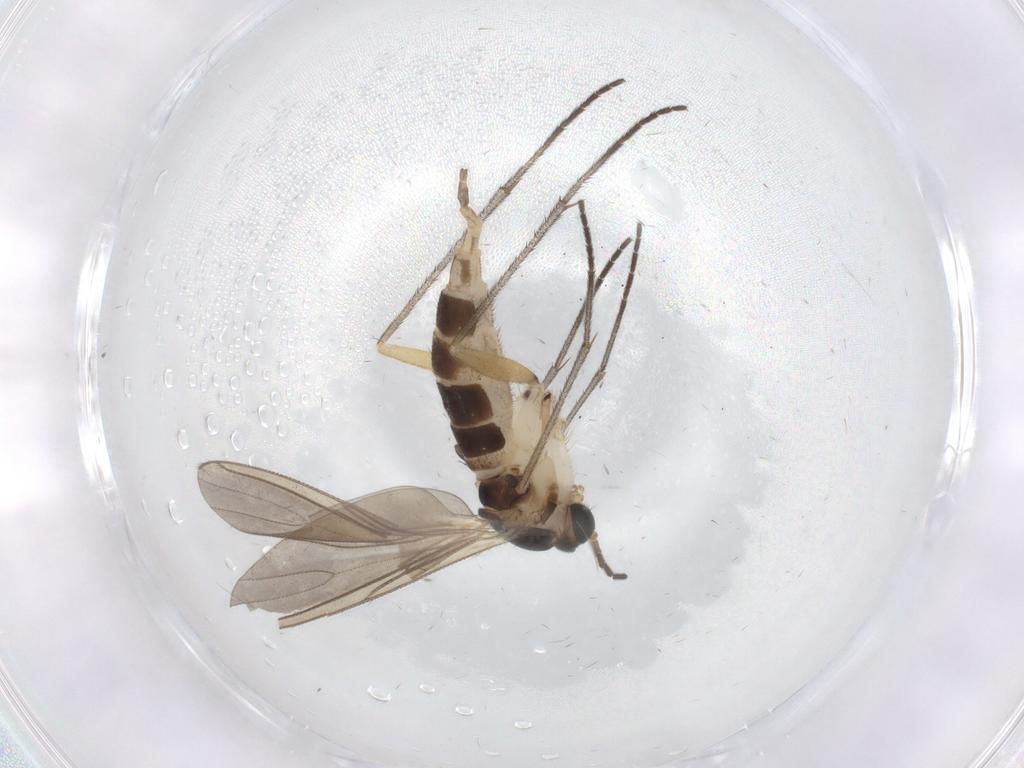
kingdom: Animalia
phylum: Arthropoda
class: Insecta
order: Diptera
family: Sciaridae
